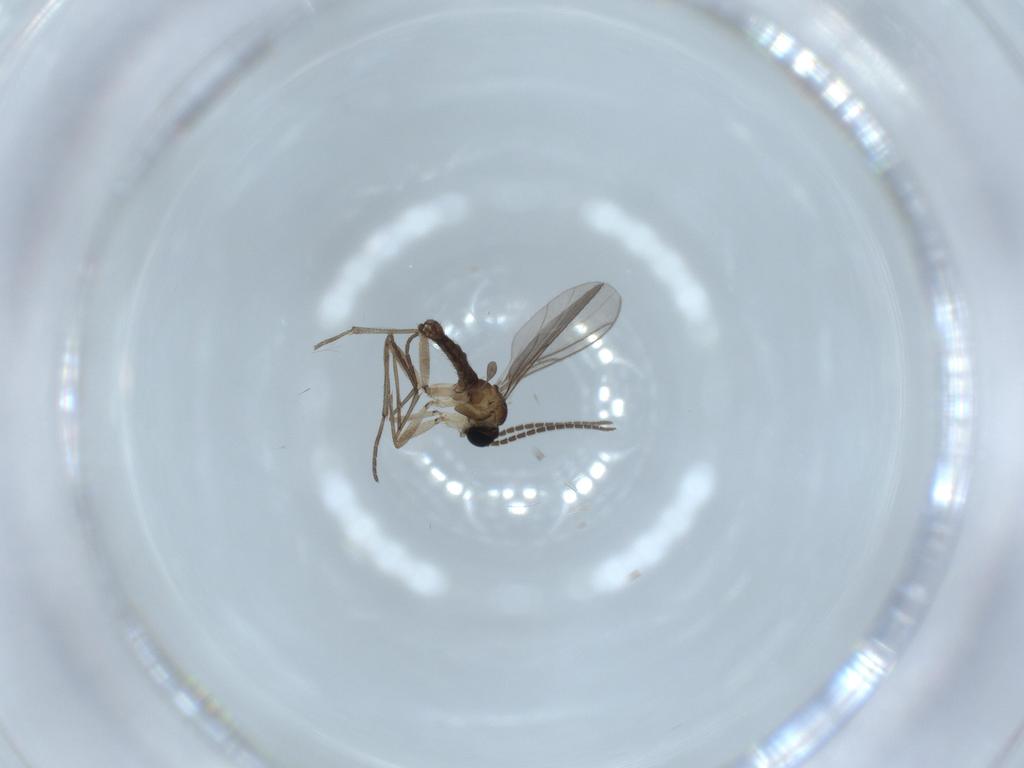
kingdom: Animalia
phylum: Arthropoda
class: Insecta
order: Diptera
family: Sciaridae
